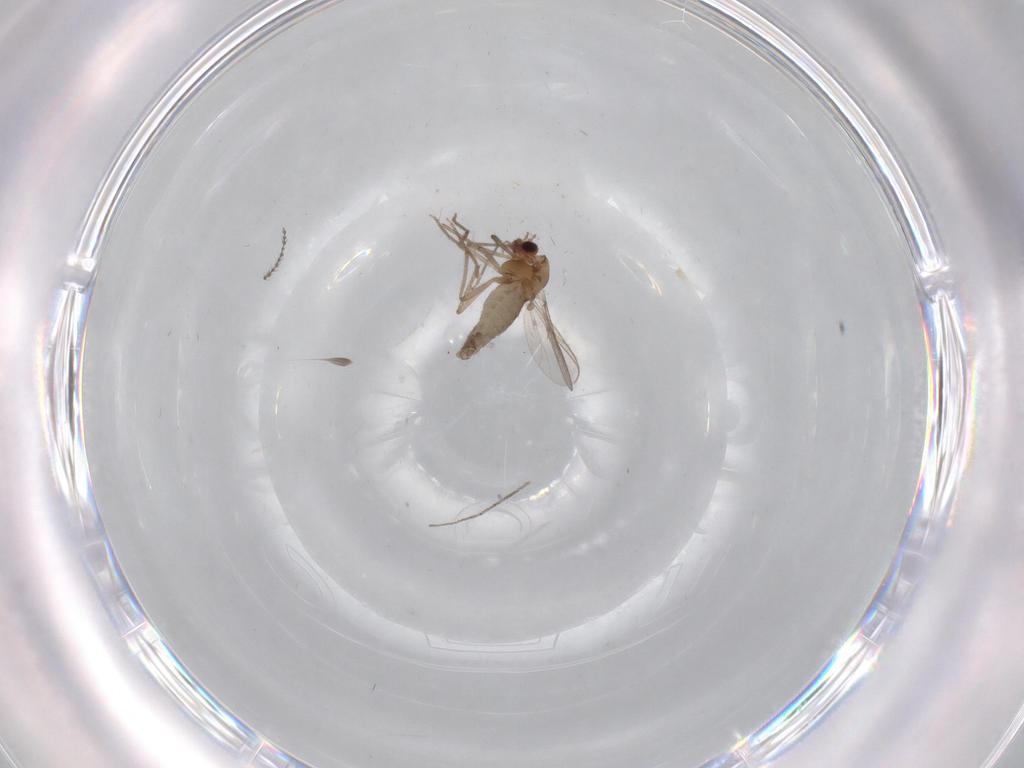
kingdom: Animalia
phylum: Arthropoda
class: Insecta
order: Diptera
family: Chironomidae
